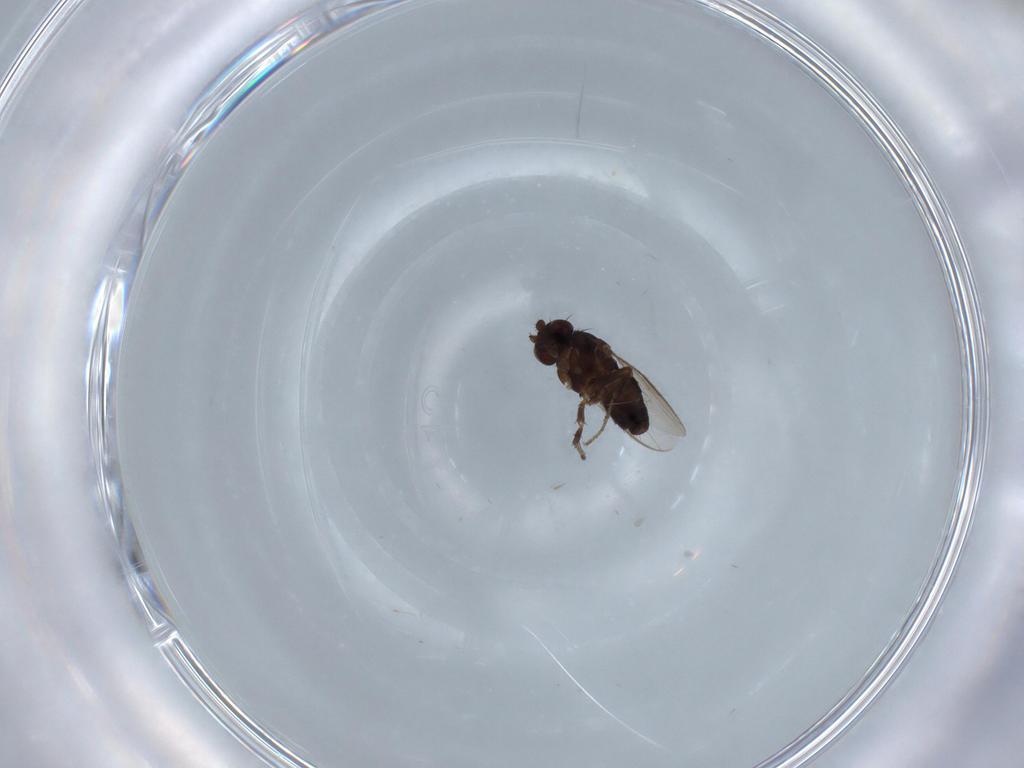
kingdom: Animalia
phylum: Arthropoda
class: Insecta
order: Diptera
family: Sphaeroceridae
